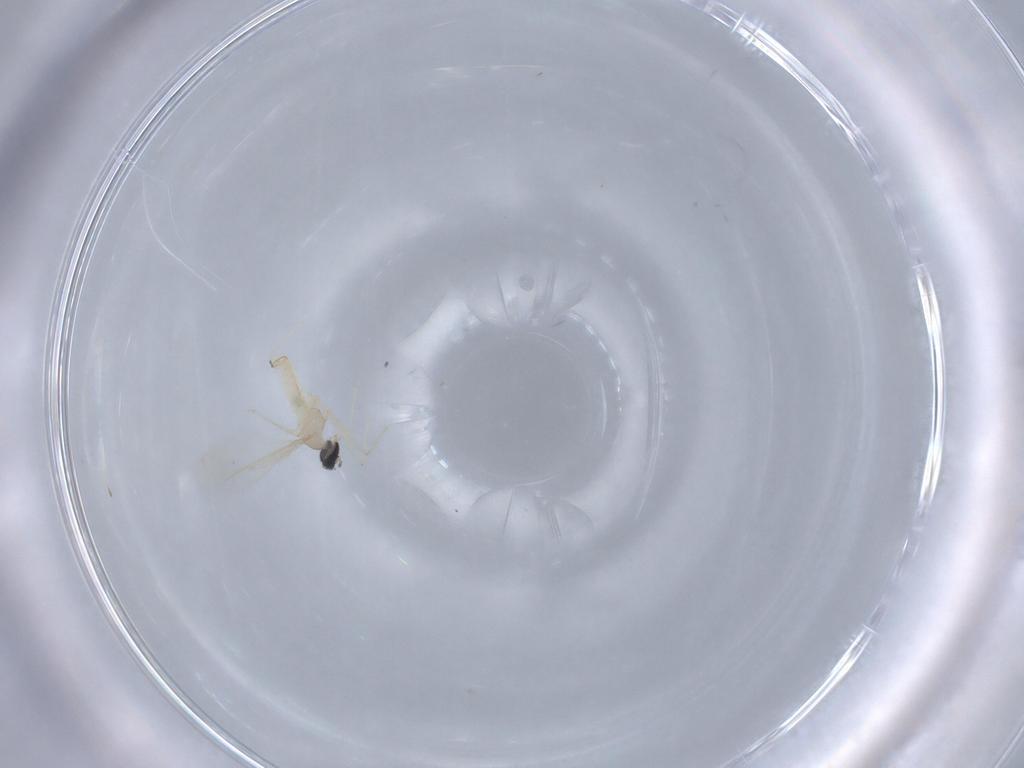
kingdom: Animalia
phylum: Arthropoda
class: Insecta
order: Diptera
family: Cecidomyiidae
